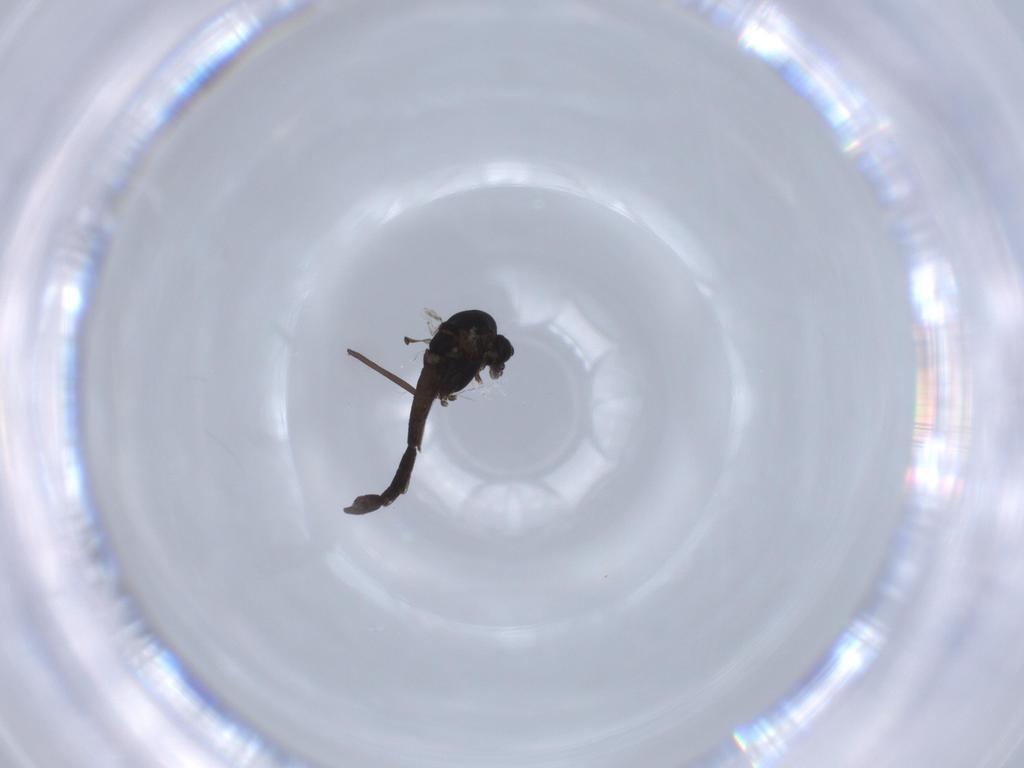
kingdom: Animalia
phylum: Arthropoda
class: Insecta
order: Diptera
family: Chironomidae
